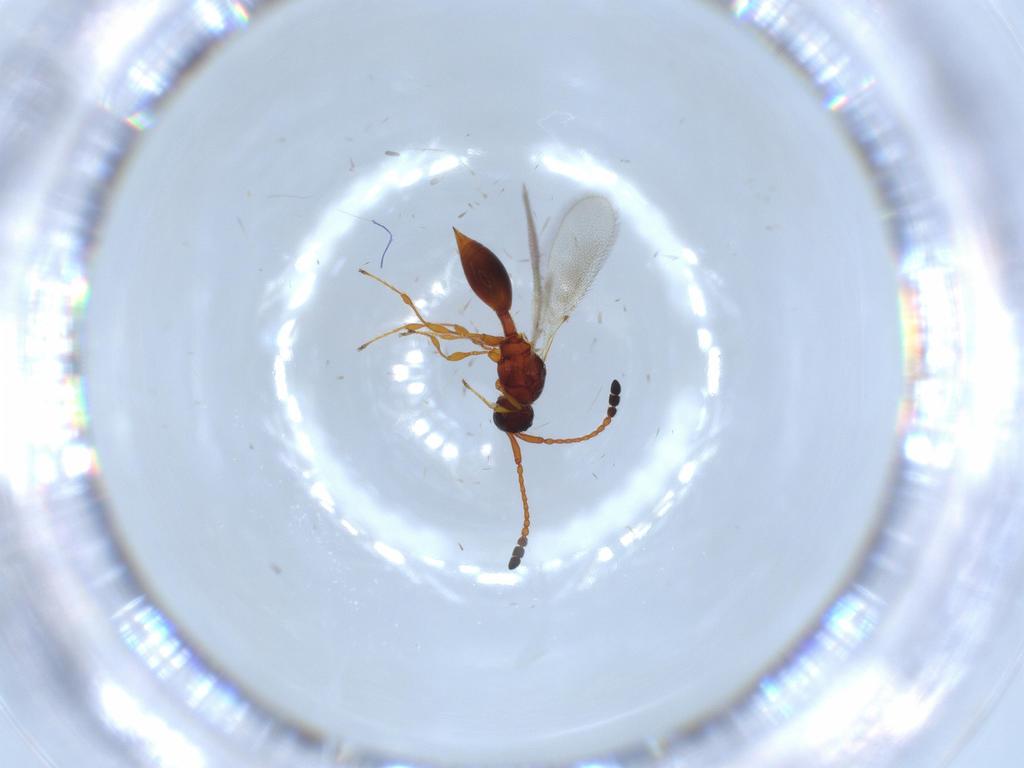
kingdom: Animalia
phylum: Arthropoda
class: Insecta
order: Hymenoptera
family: Diapriidae
